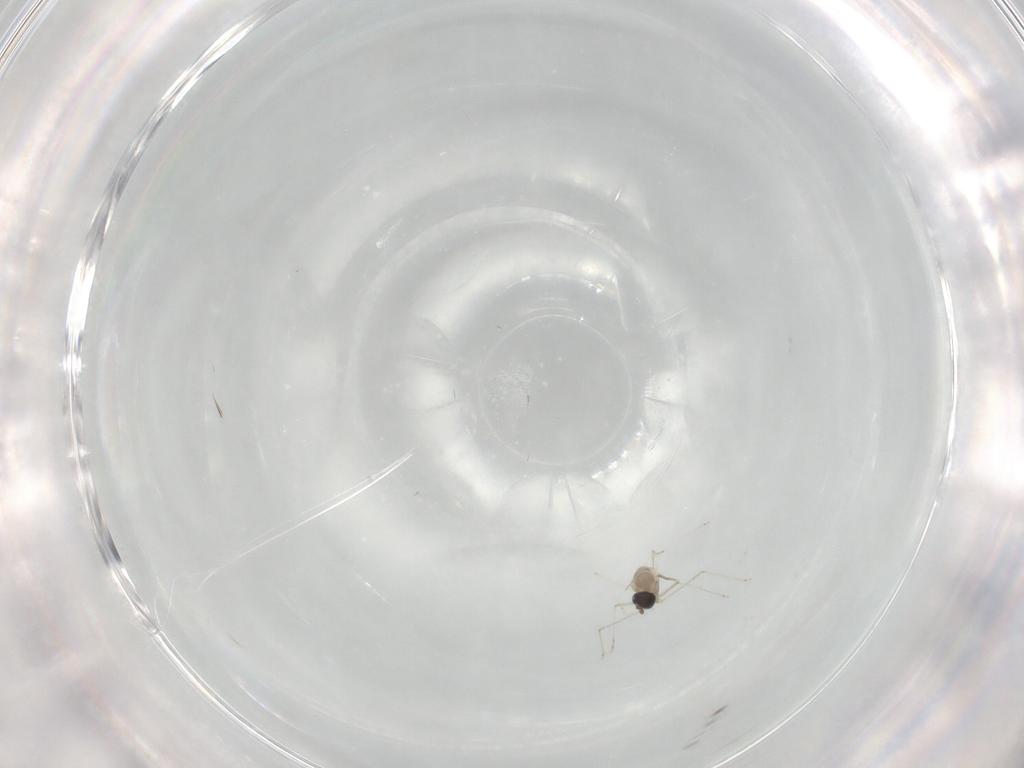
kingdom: Animalia
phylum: Arthropoda
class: Insecta
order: Diptera
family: Cecidomyiidae
